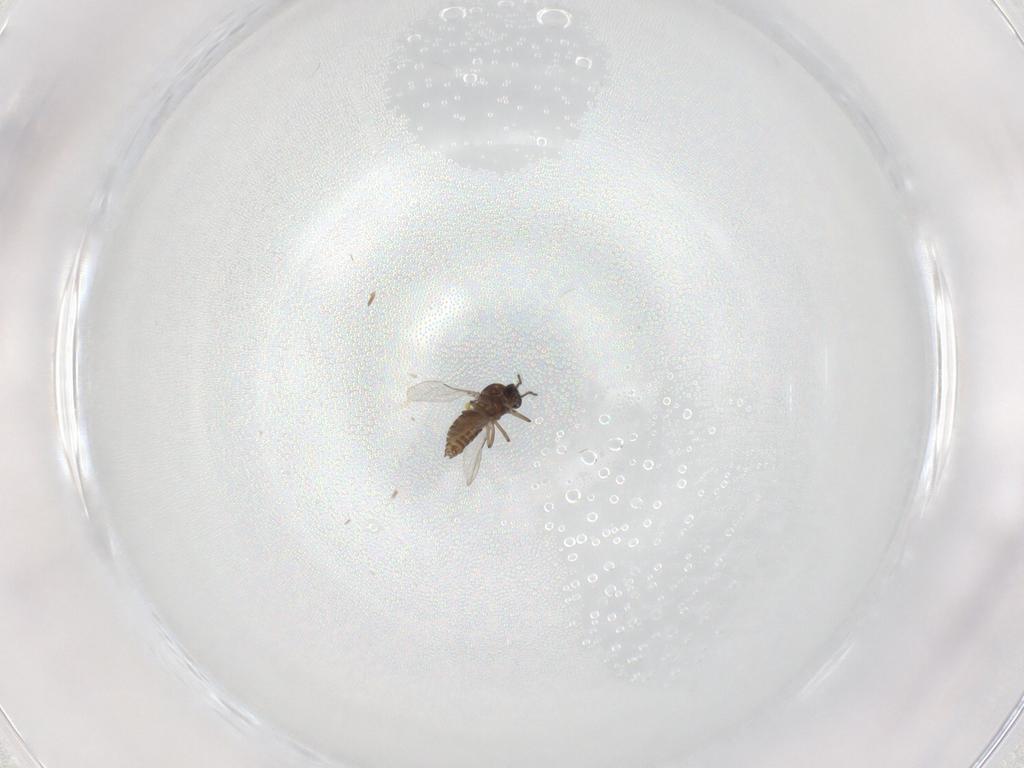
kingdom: Animalia
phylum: Arthropoda
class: Insecta
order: Diptera
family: Ceratopogonidae
